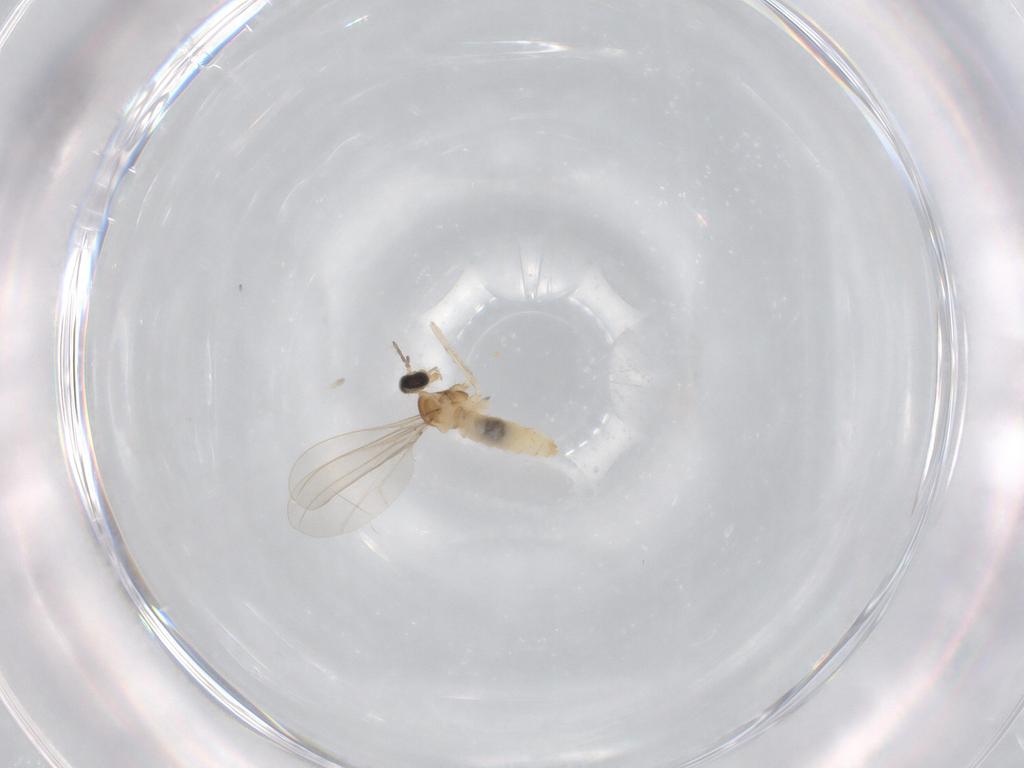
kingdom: Animalia
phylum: Arthropoda
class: Insecta
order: Diptera
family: Cecidomyiidae
